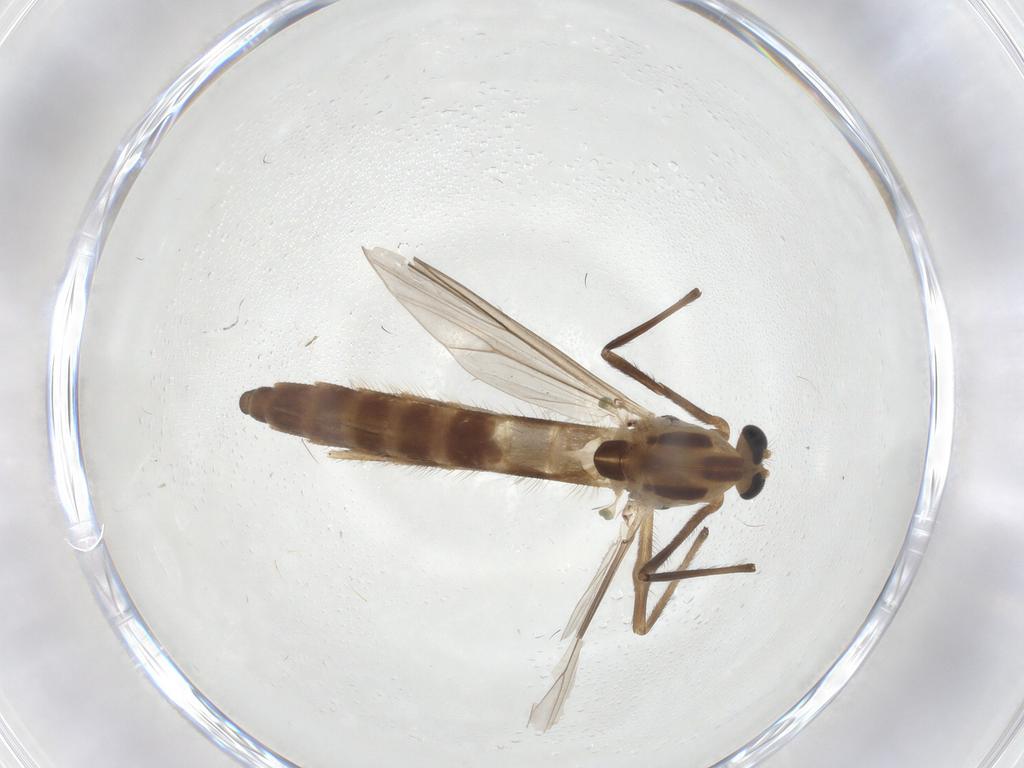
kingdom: Animalia
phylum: Arthropoda
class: Insecta
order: Diptera
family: Chironomidae
